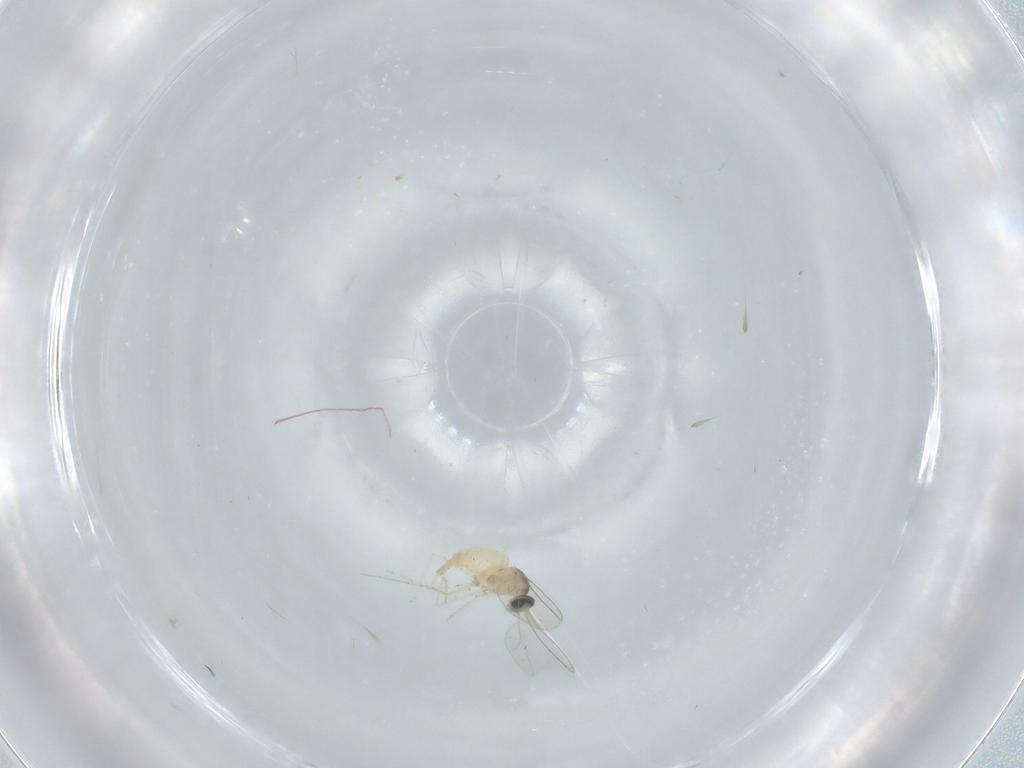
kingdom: Animalia
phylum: Arthropoda
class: Insecta
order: Diptera
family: Cecidomyiidae
